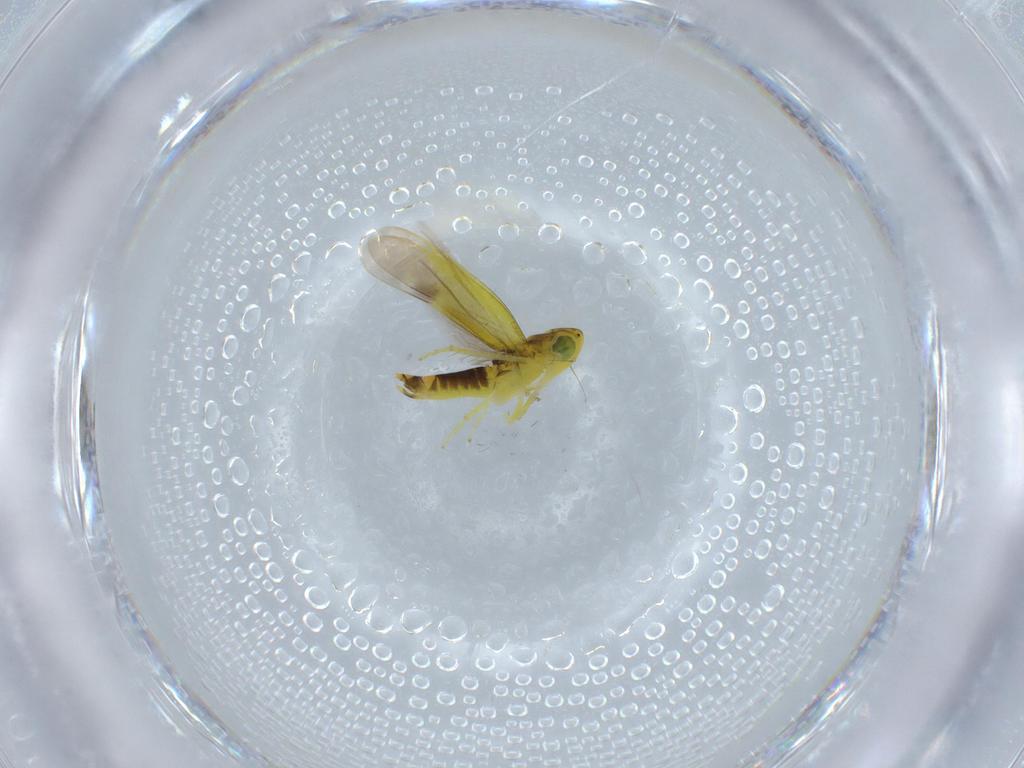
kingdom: Animalia
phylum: Arthropoda
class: Insecta
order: Hemiptera
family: Cicadellidae
